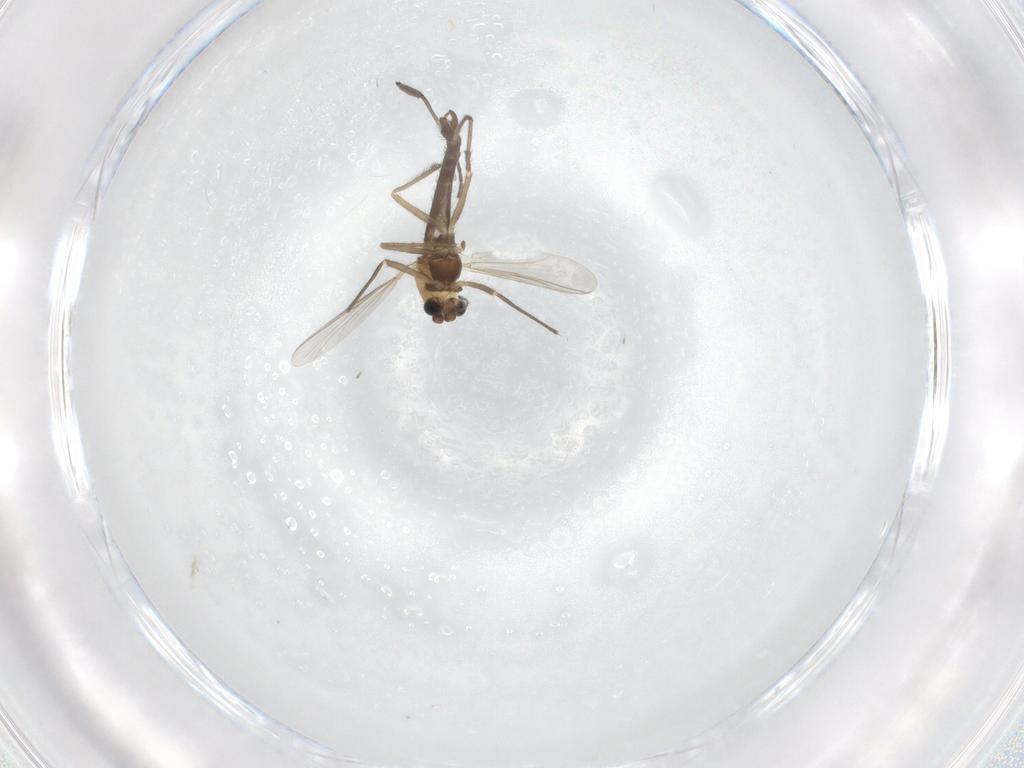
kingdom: Animalia
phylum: Arthropoda
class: Insecta
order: Diptera
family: Chironomidae
